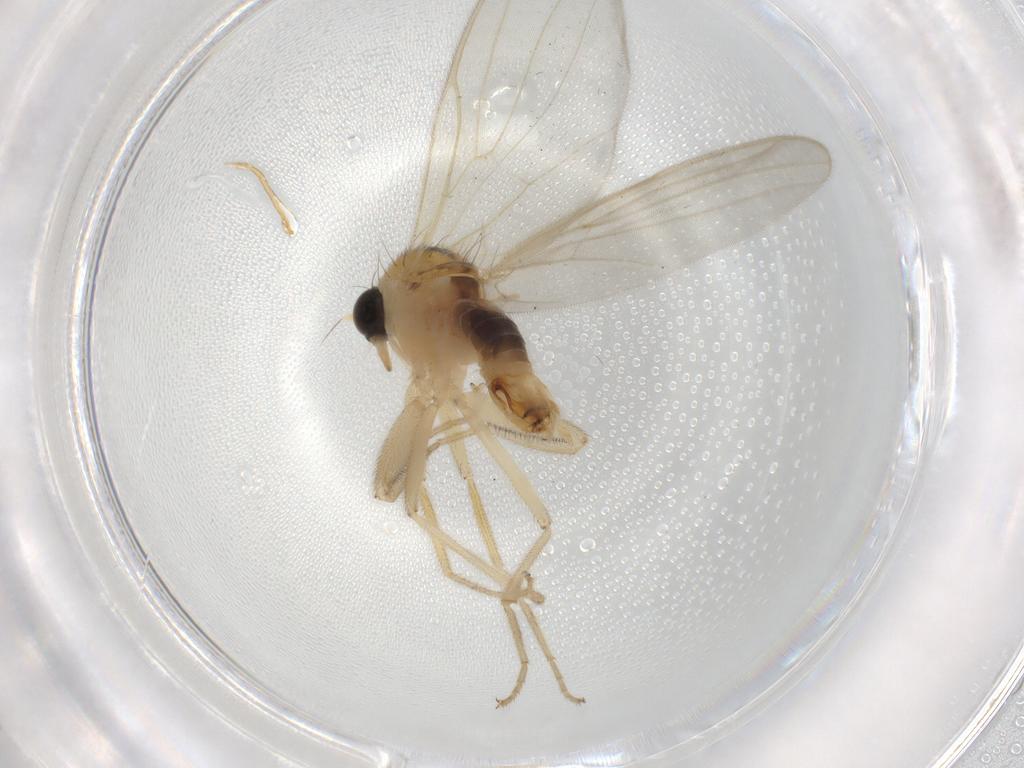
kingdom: Animalia
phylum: Arthropoda
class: Insecta
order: Diptera
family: Hybotidae
